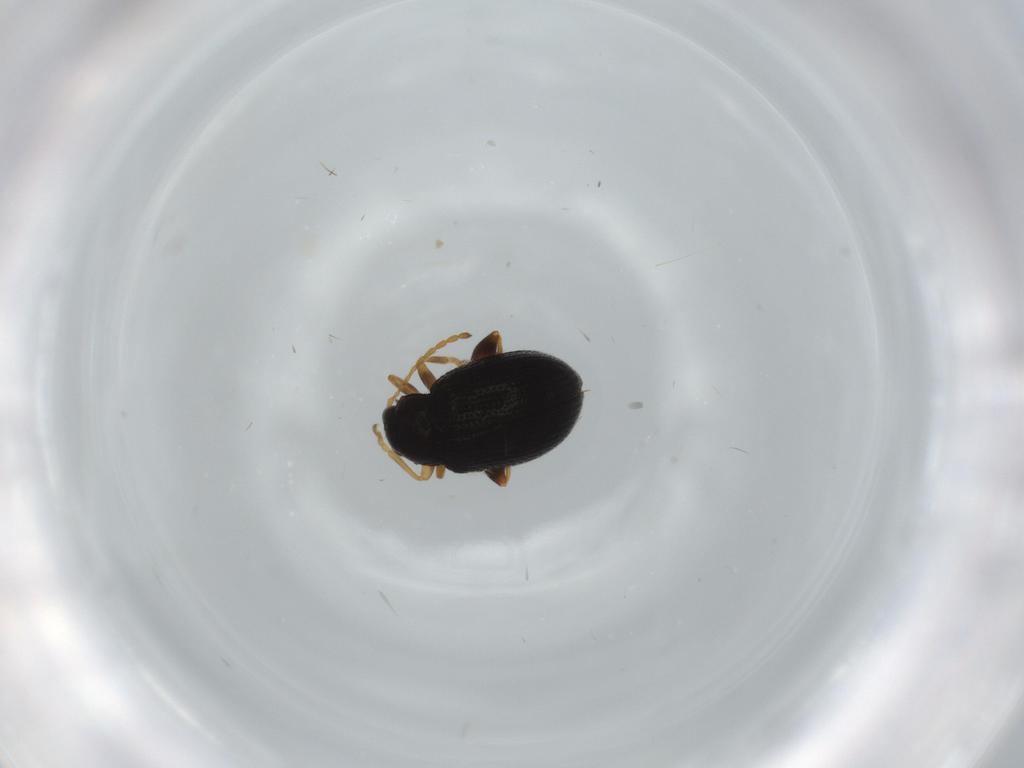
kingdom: Animalia
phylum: Arthropoda
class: Insecta
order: Coleoptera
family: Chrysomelidae
